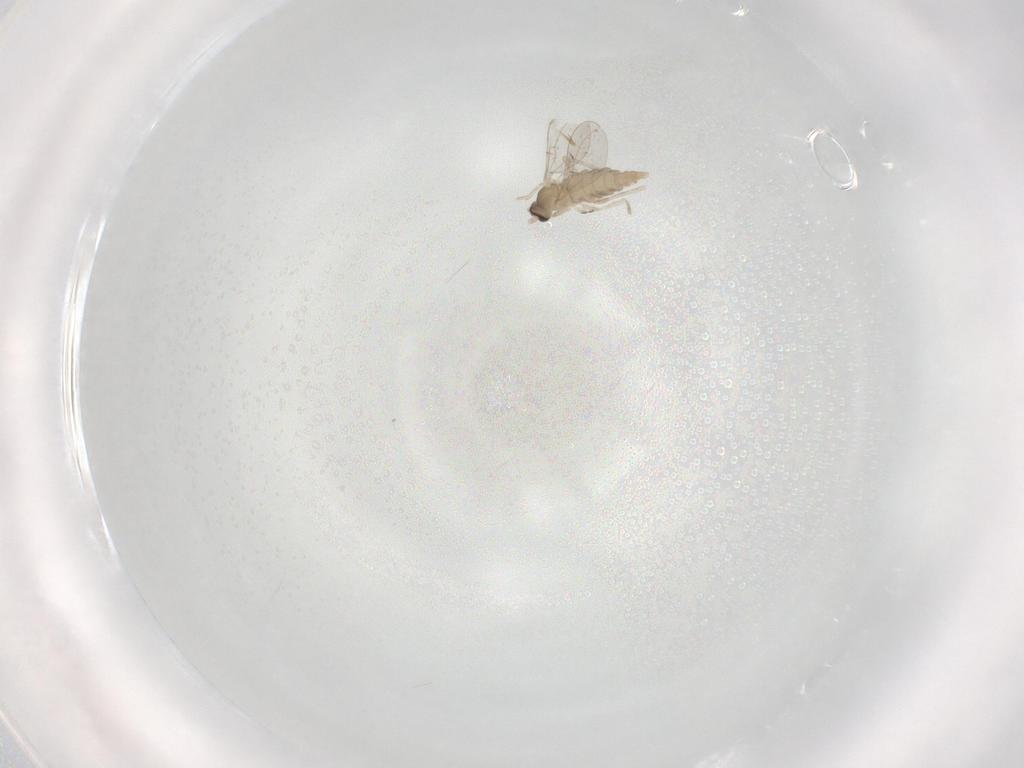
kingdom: Animalia
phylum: Arthropoda
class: Insecta
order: Diptera
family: Cecidomyiidae
